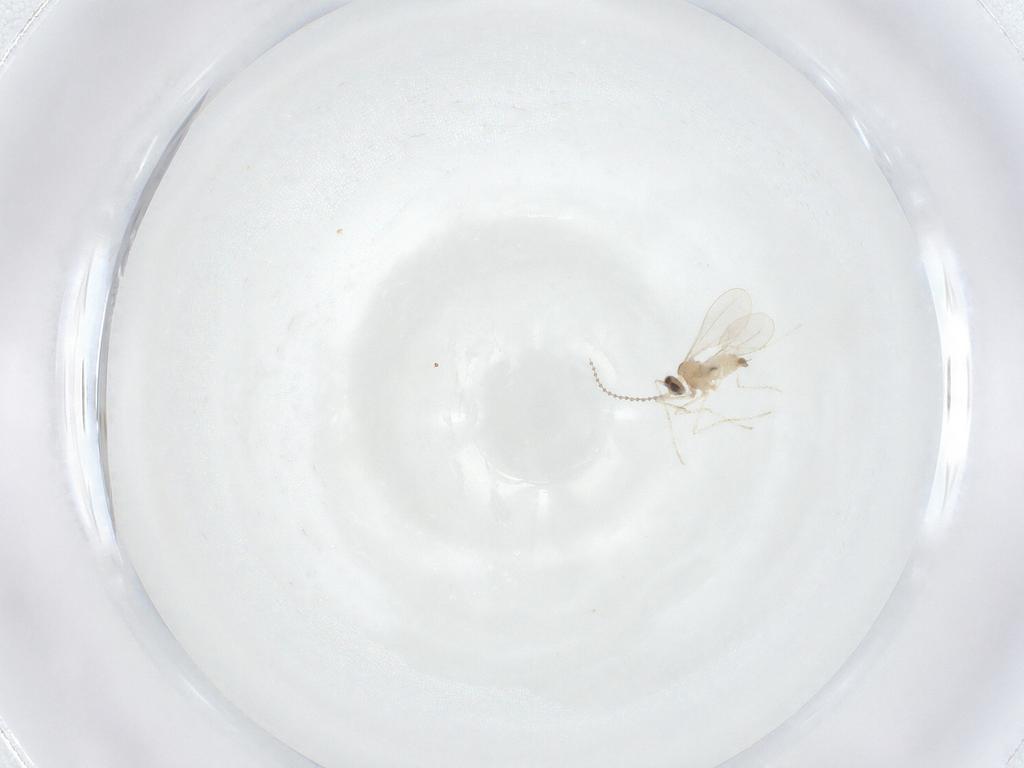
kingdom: Animalia
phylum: Arthropoda
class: Insecta
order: Diptera
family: Cecidomyiidae
